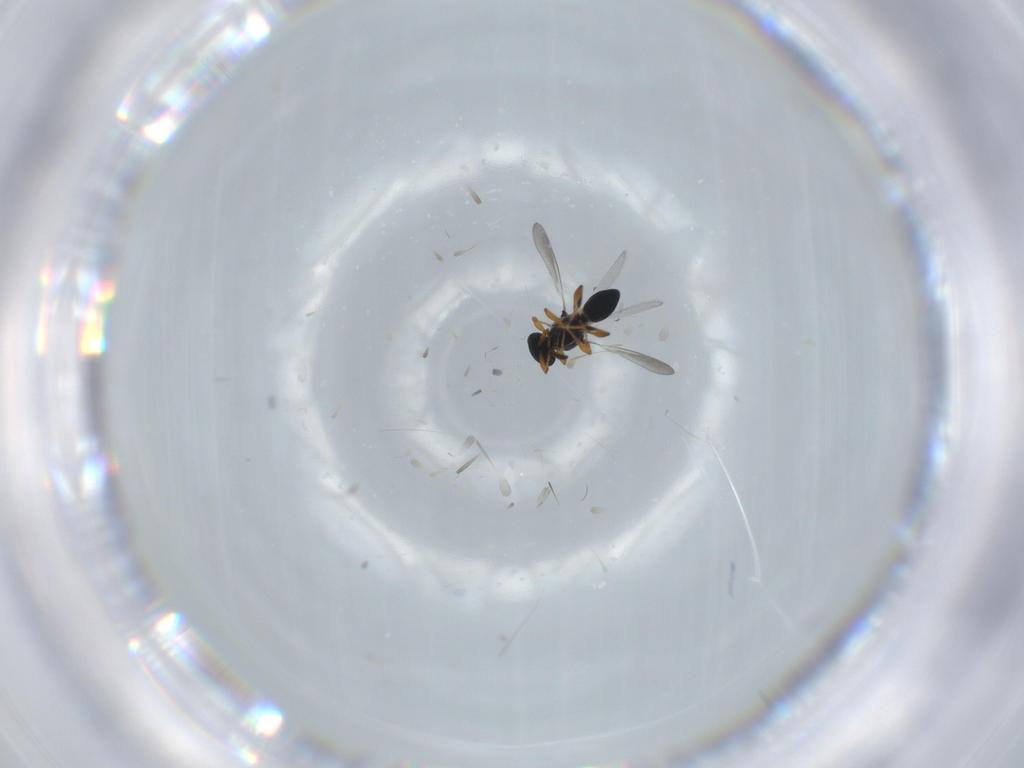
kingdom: Animalia
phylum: Arthropoda
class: Insecta
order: Hymenoptera
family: Platygastridae
